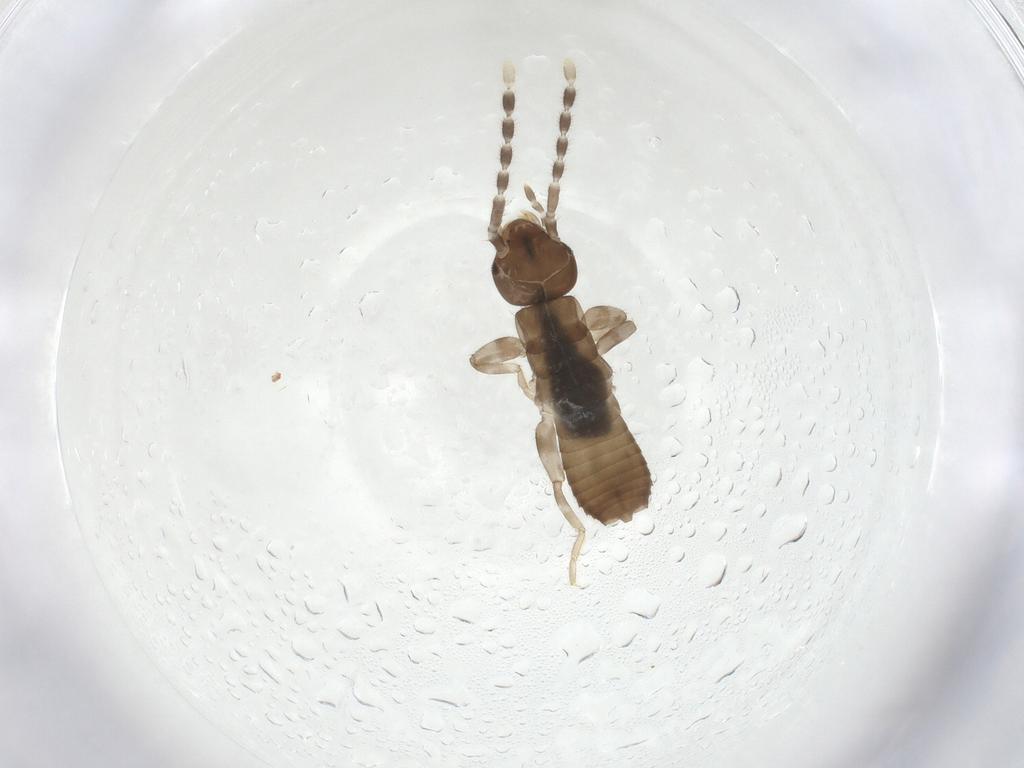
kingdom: Animalia
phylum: Arthropoda
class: Insecta
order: Dermaptera
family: Labiduridae
